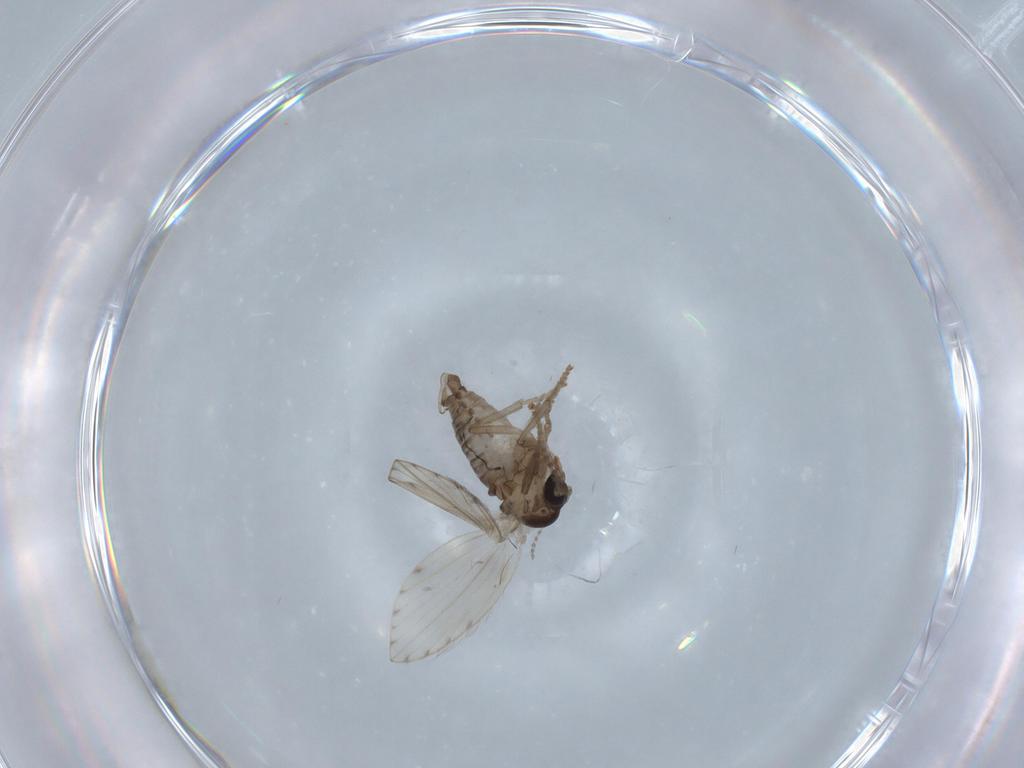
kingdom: Animalia
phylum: Arthropoda
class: Insecta
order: Diptera
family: Psychodidae
